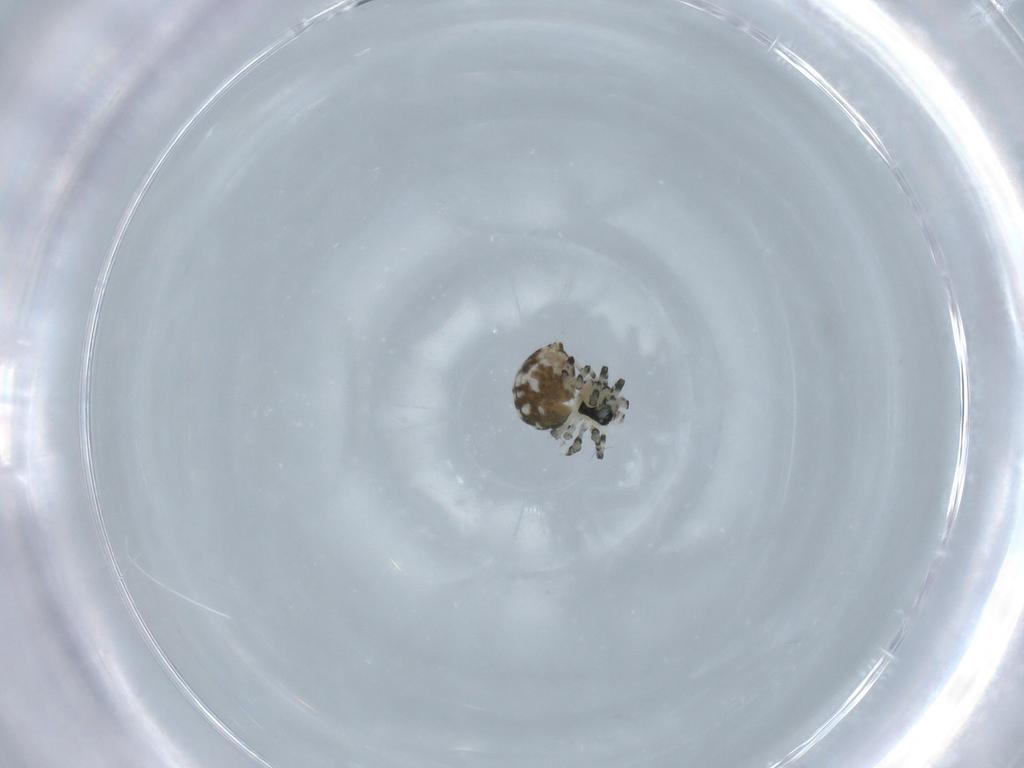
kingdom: Animalia
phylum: Arthropoda
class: Arachnida
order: Araneae
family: Mysmenidae
